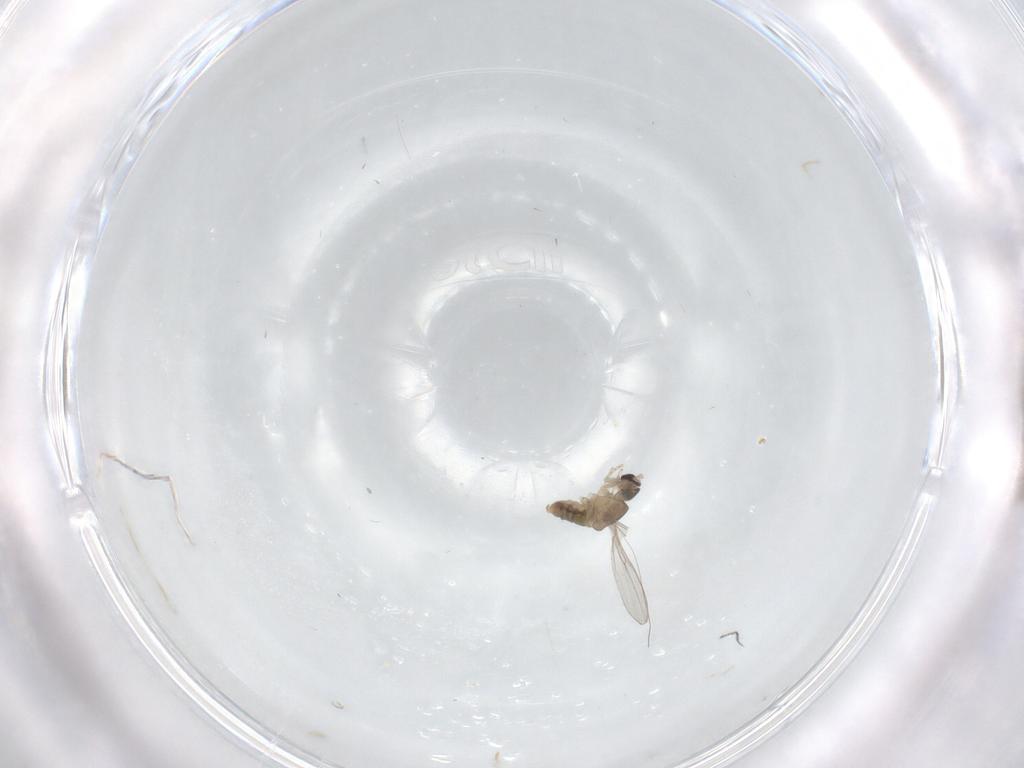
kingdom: Animalia
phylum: Arthropoda
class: Insecta
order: Diptera
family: Cecidomyiidae
